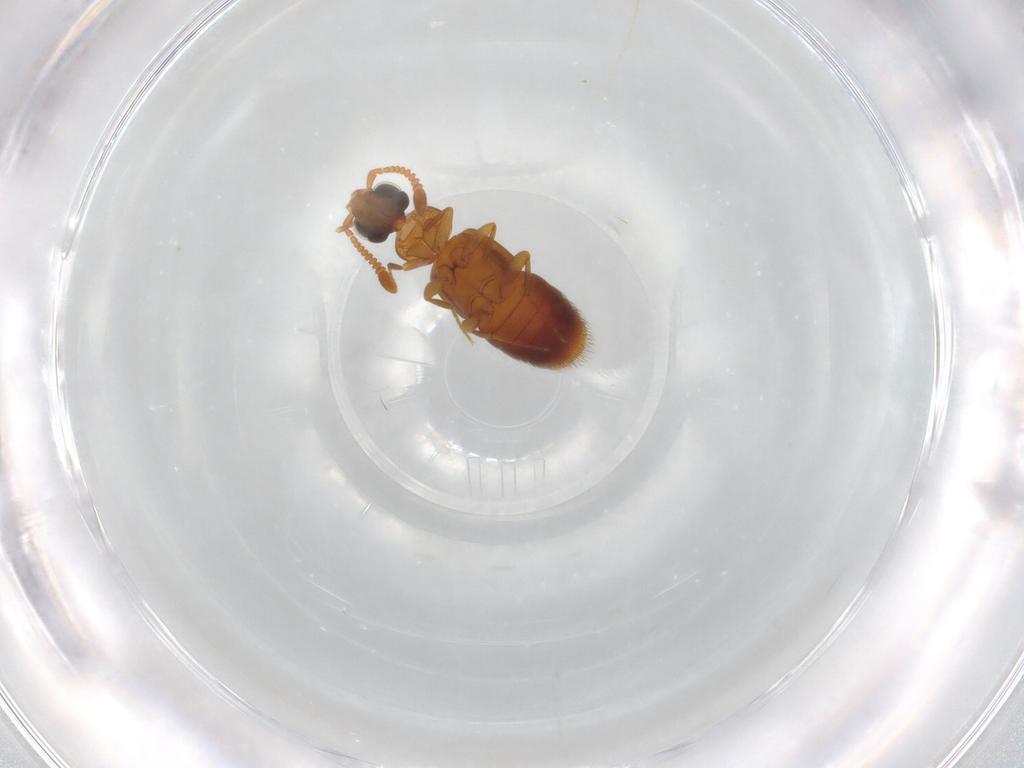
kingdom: Animalia
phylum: Arthropoda
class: Insecta
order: Coleoptera
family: Staphylinidae
